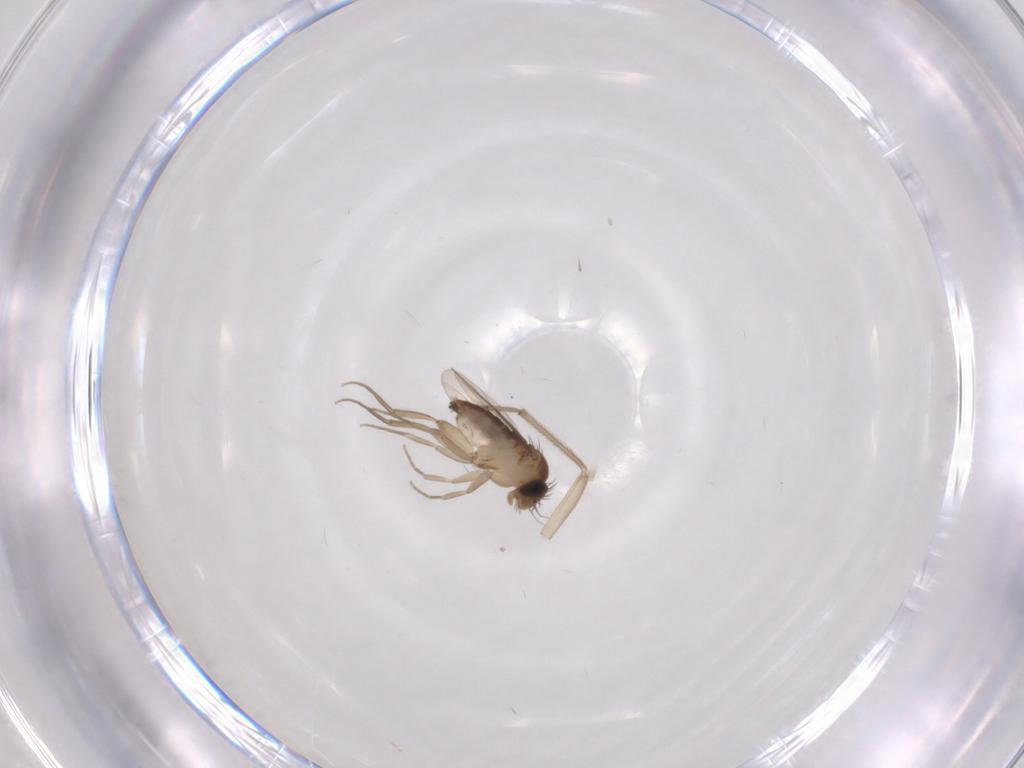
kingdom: Animalia
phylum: Arthropoda
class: Insecta
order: Diptera
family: Phoridae
